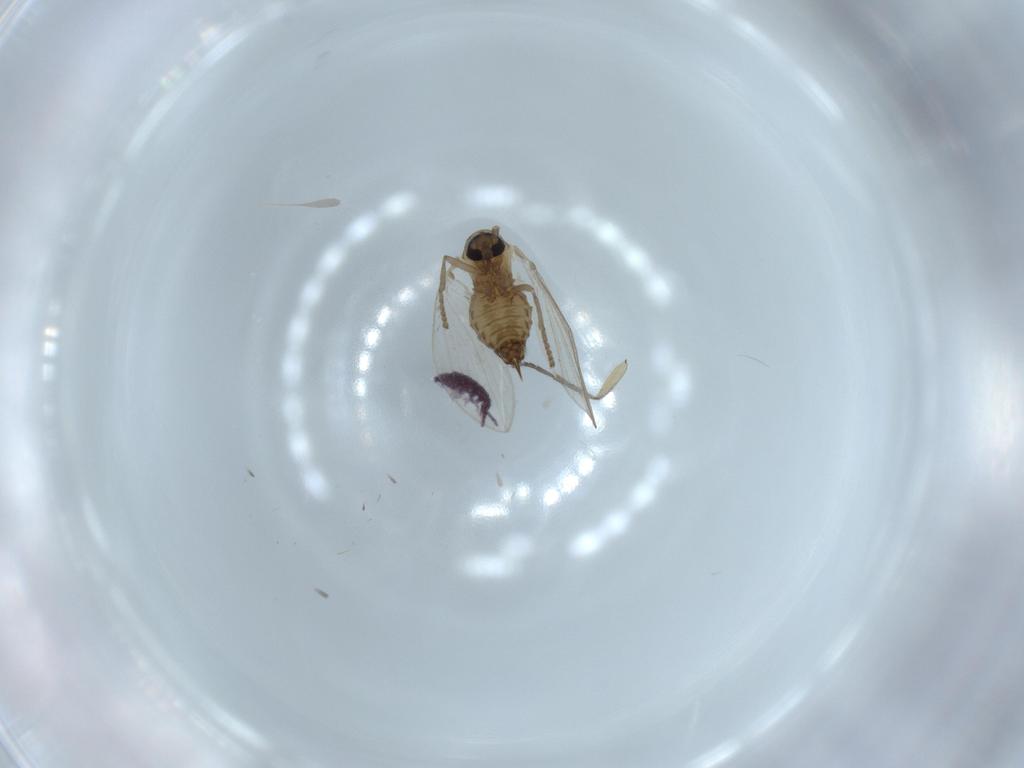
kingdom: Animalia
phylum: Arthropoda
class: Insecta
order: Diptera
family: Psychodidae
